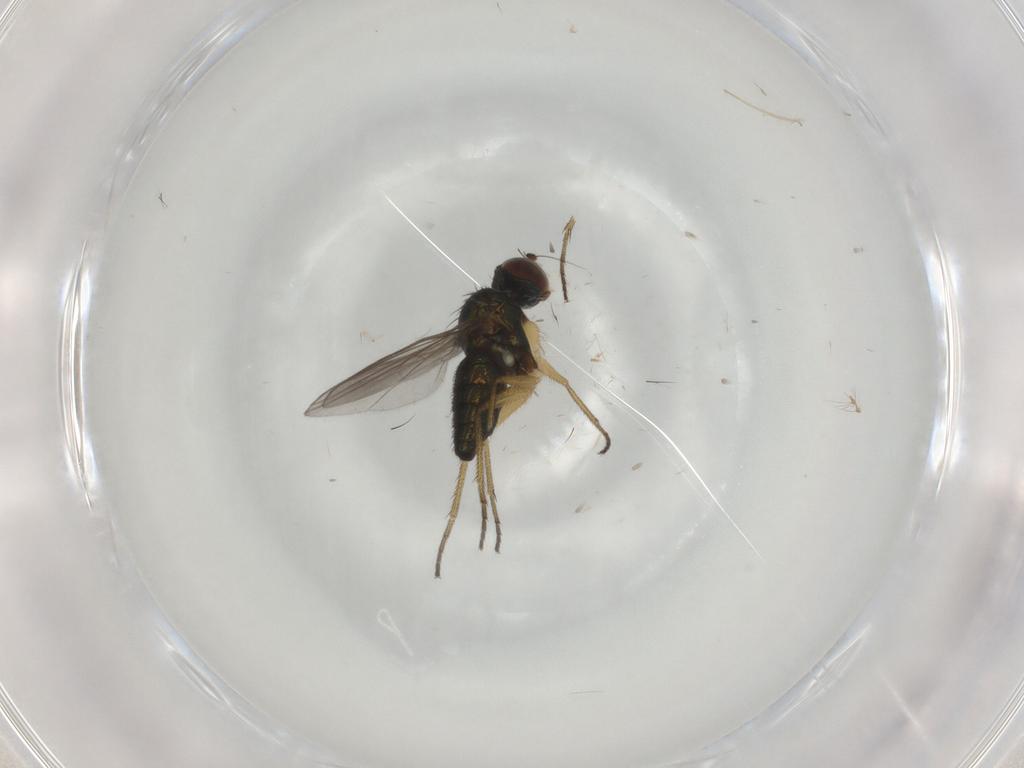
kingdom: Animalia
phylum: Arthropoda
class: Insecta
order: Diptera
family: Dolichopodidae
